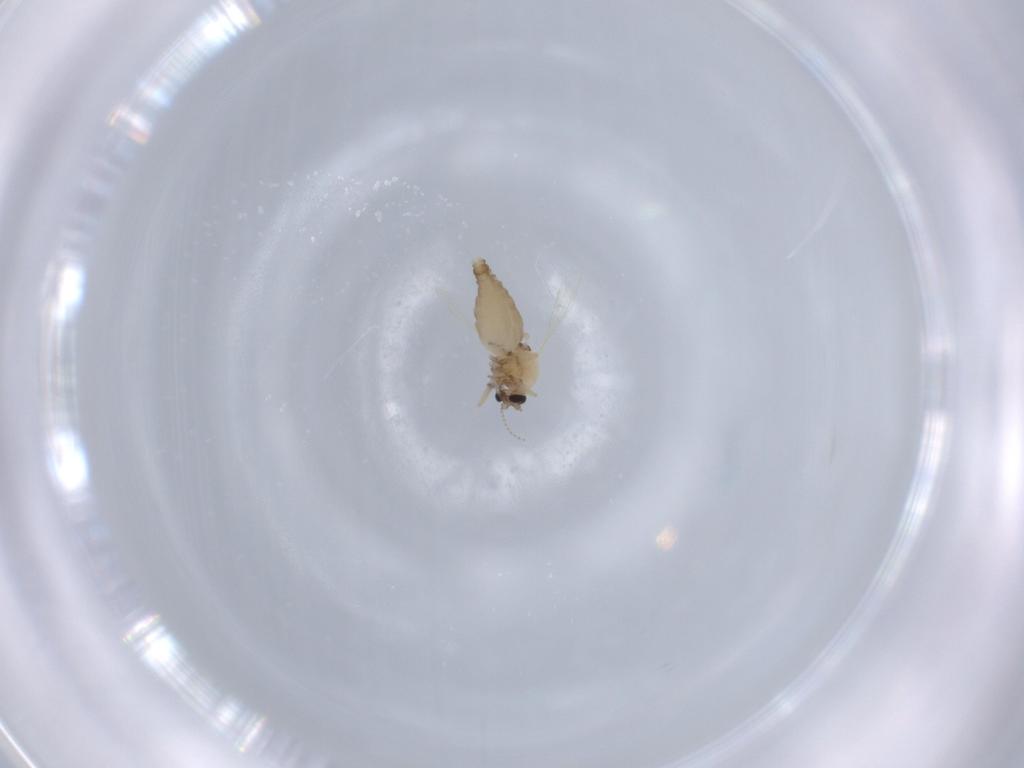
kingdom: Animalia
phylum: Arthropoda
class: Insecta
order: Diptera
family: Ceratopogonidae
